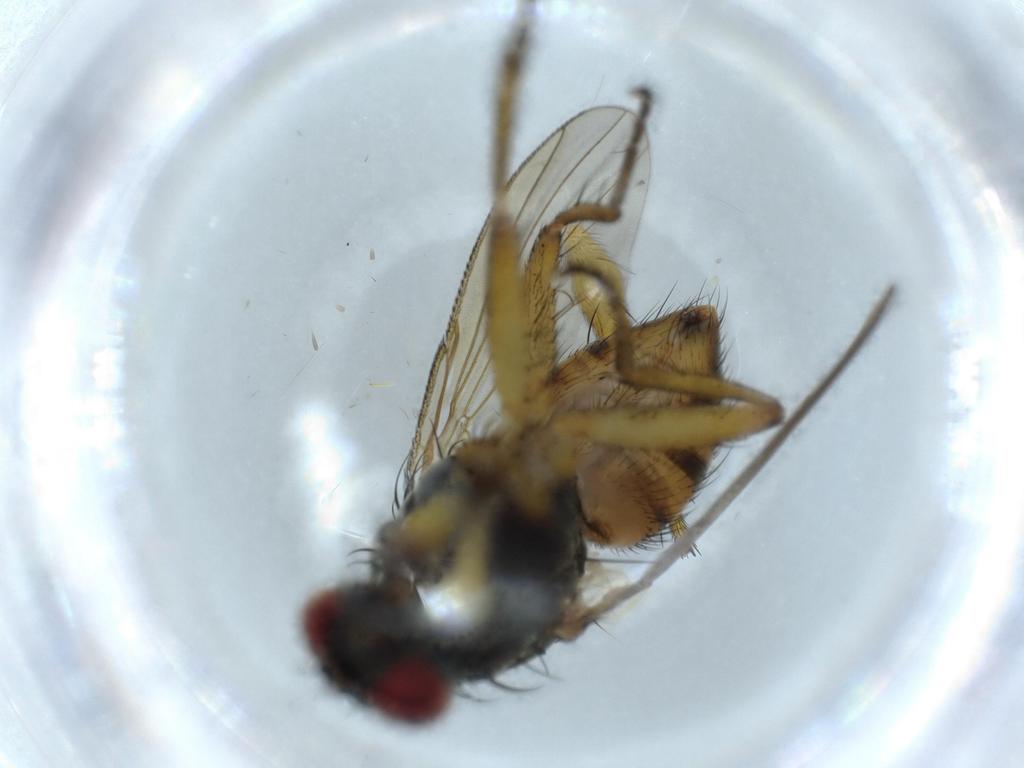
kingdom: Animalia
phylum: Arthropoda
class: Insecta
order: Diptera
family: Muscidae
